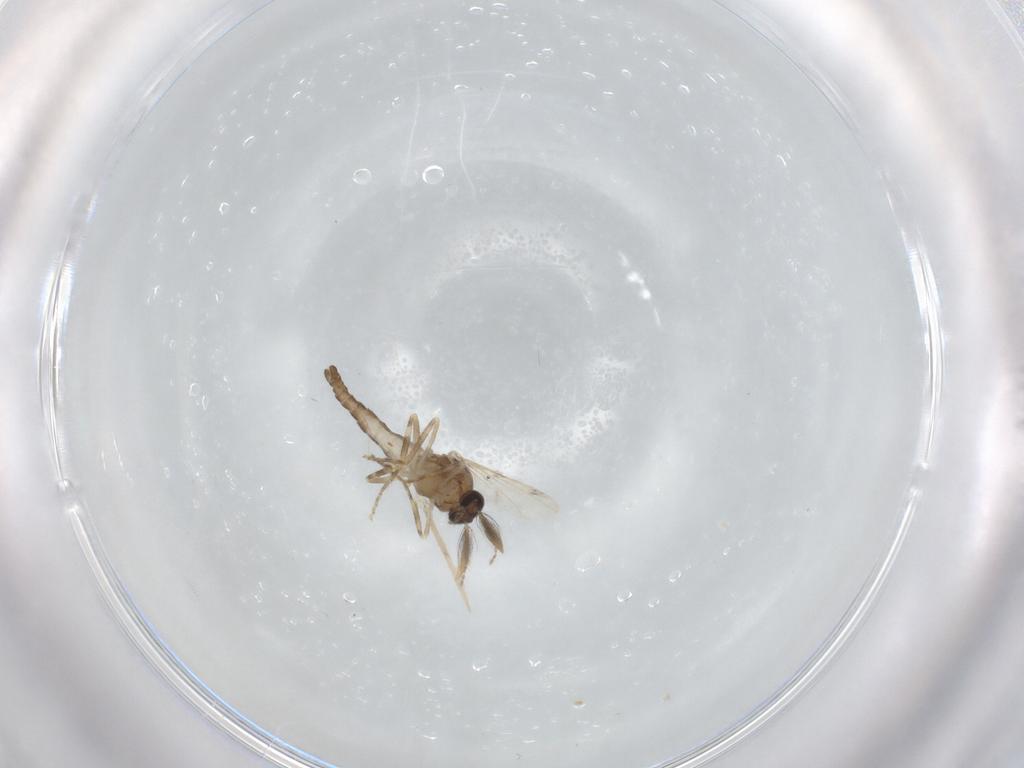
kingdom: Animalia
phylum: Arthropoda
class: Insecta
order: Diptera
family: Ceratopogonidae
